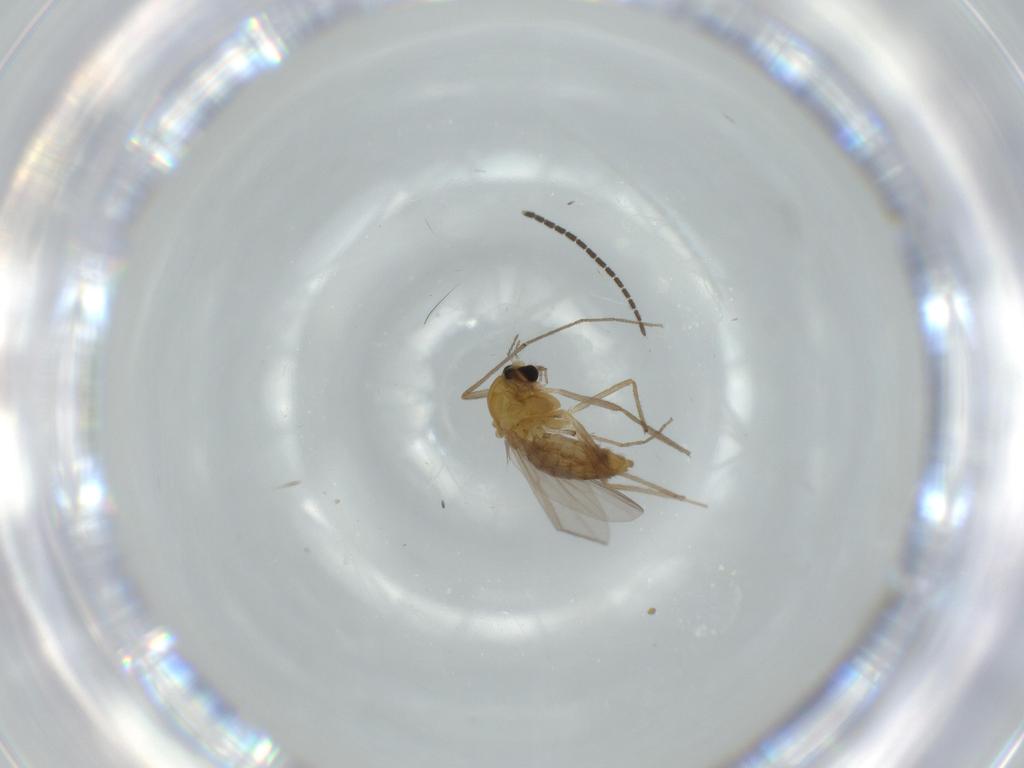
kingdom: Animalia
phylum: Arthropoda
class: Insecta
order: Diptera
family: Chironomidae
